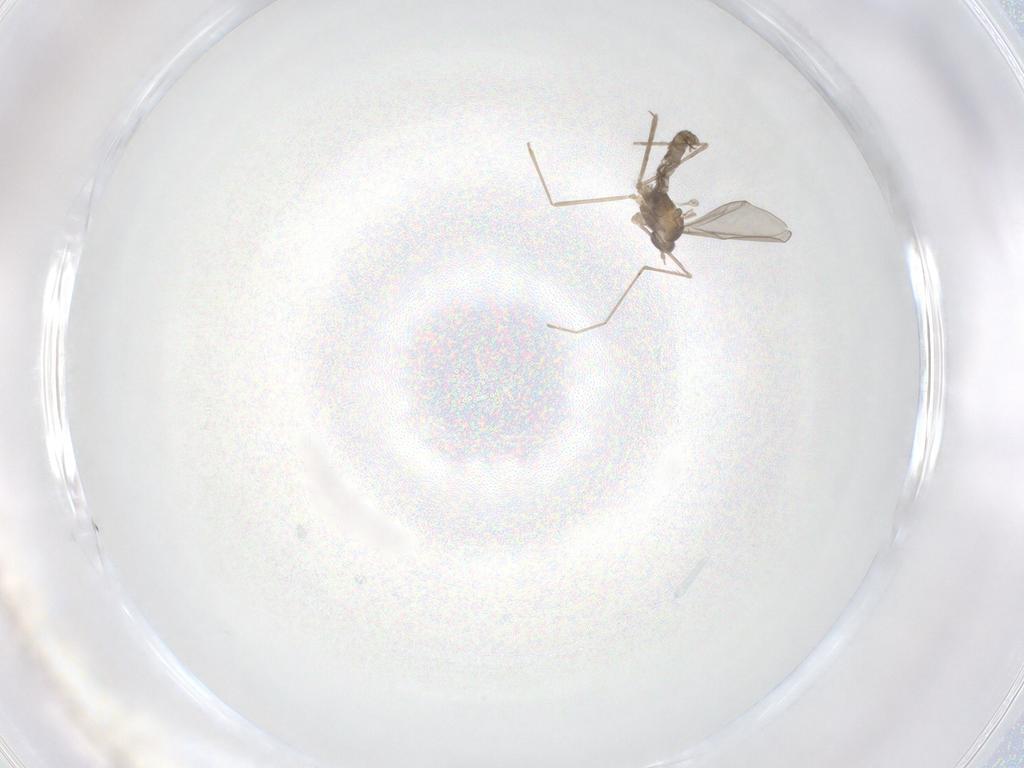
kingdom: Animalia
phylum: Arthropoda
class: Insecta
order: Diptera
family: Cecidomyiidae
